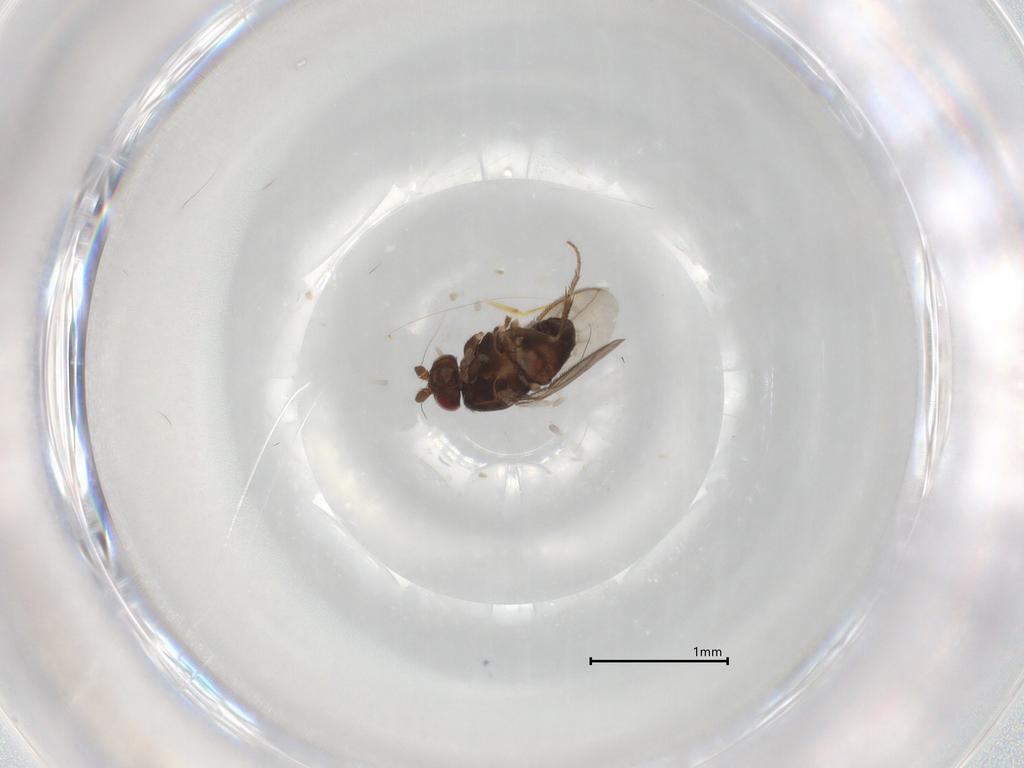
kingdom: Animalia
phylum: Arthropoda
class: Insecta
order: Diptera
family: Sphaeroceridae
